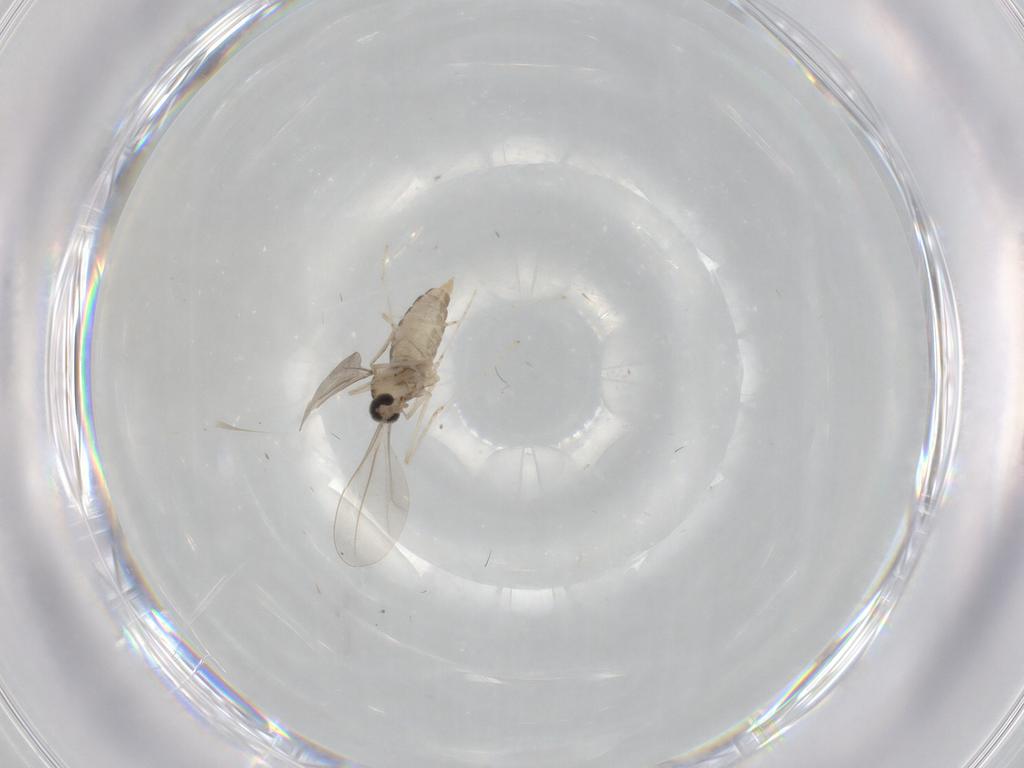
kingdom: Animalia
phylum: Arthropoda
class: Insecta
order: Diptera
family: Cecidomyiidae
